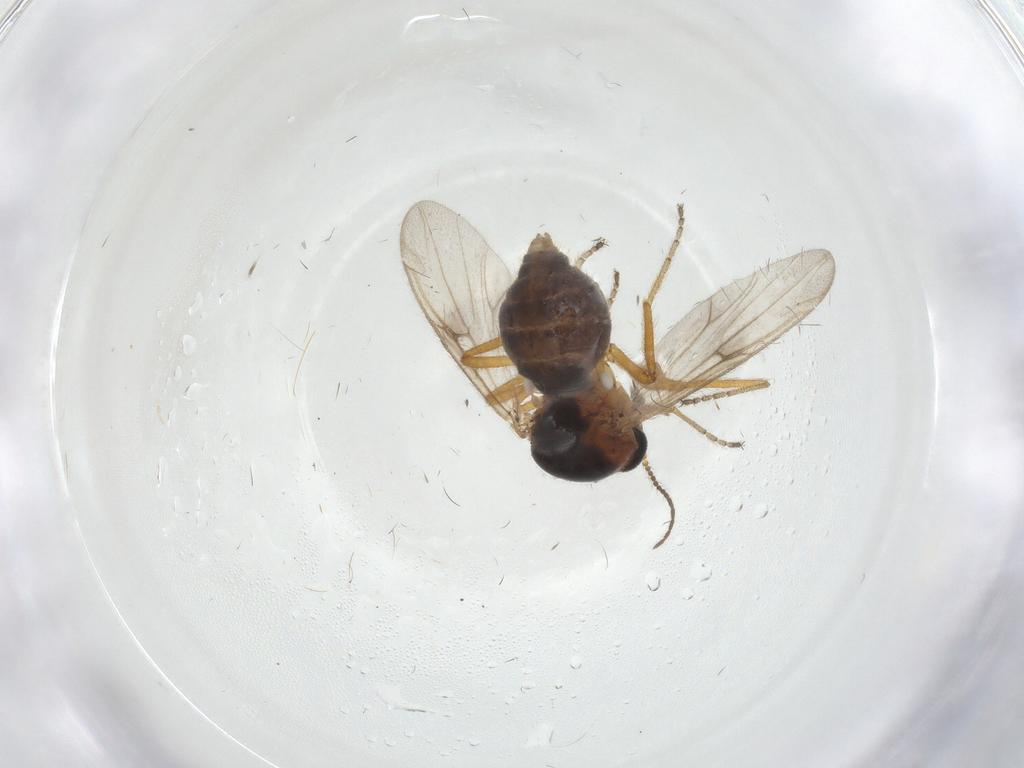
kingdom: Animalia
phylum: Arthropoda
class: Insecta
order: Diptera
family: Ceratopogonidae
